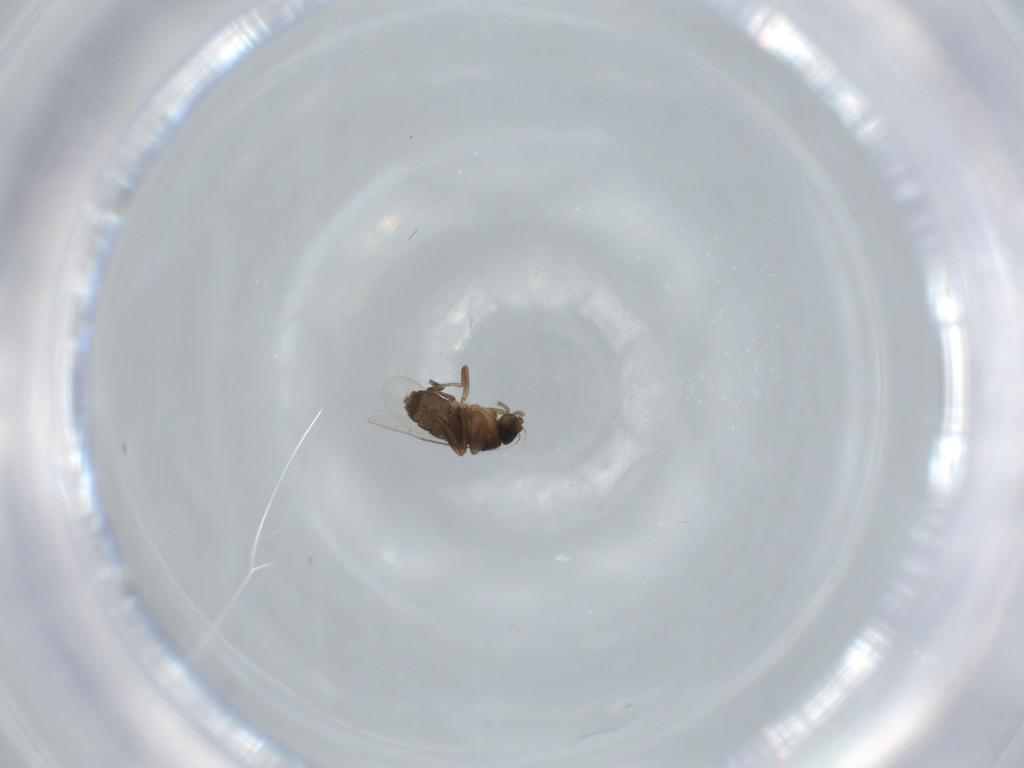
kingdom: Animalia
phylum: Arthropoda
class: Insecta
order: Diptera
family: Phoridae
